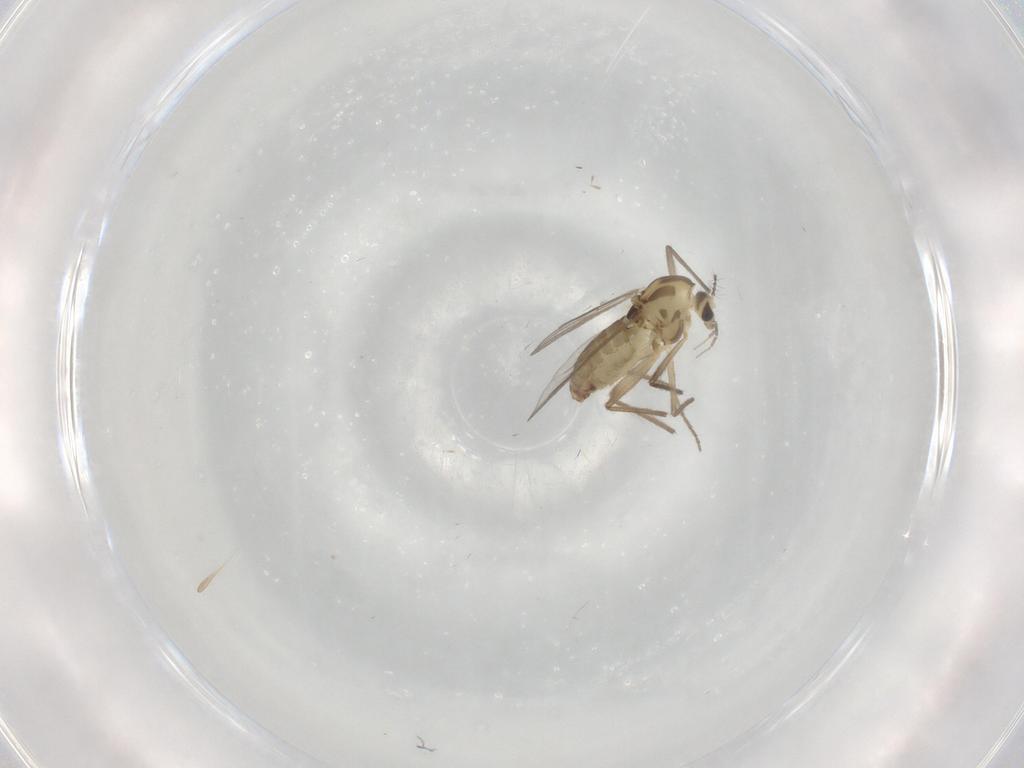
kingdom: Animalia
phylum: Arthropoda
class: Insecta
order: Diptera
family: Chironomidae
